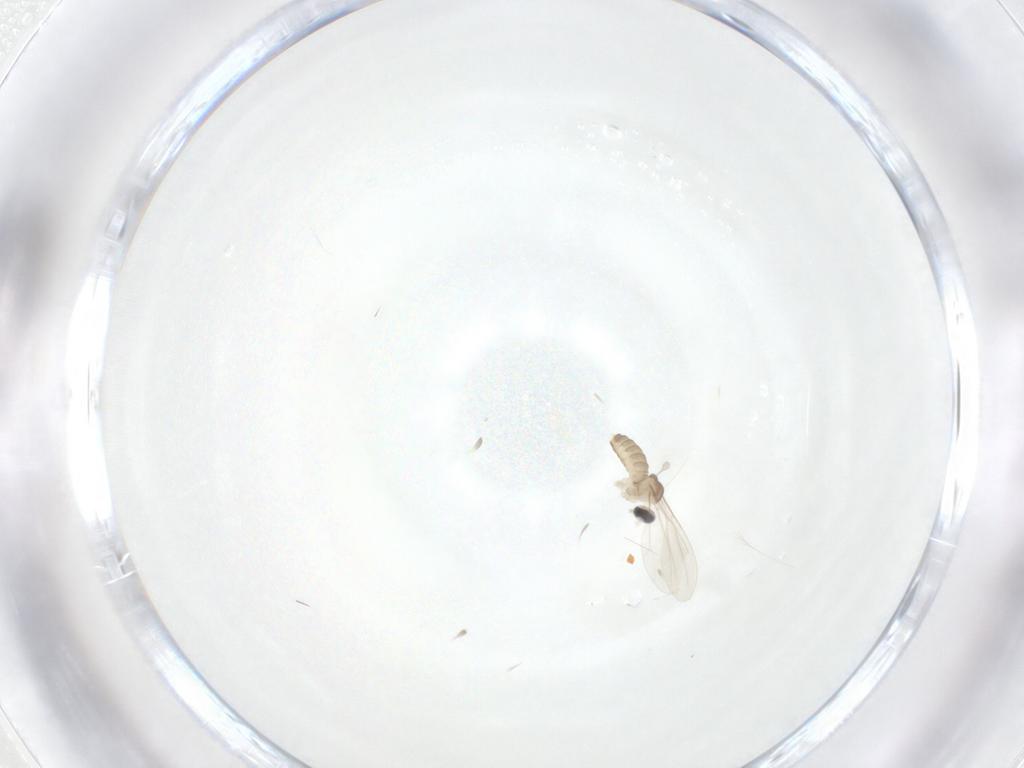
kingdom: Animalia
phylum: Arthropoda
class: Insecta
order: Diptera
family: Cecidomyiidae
